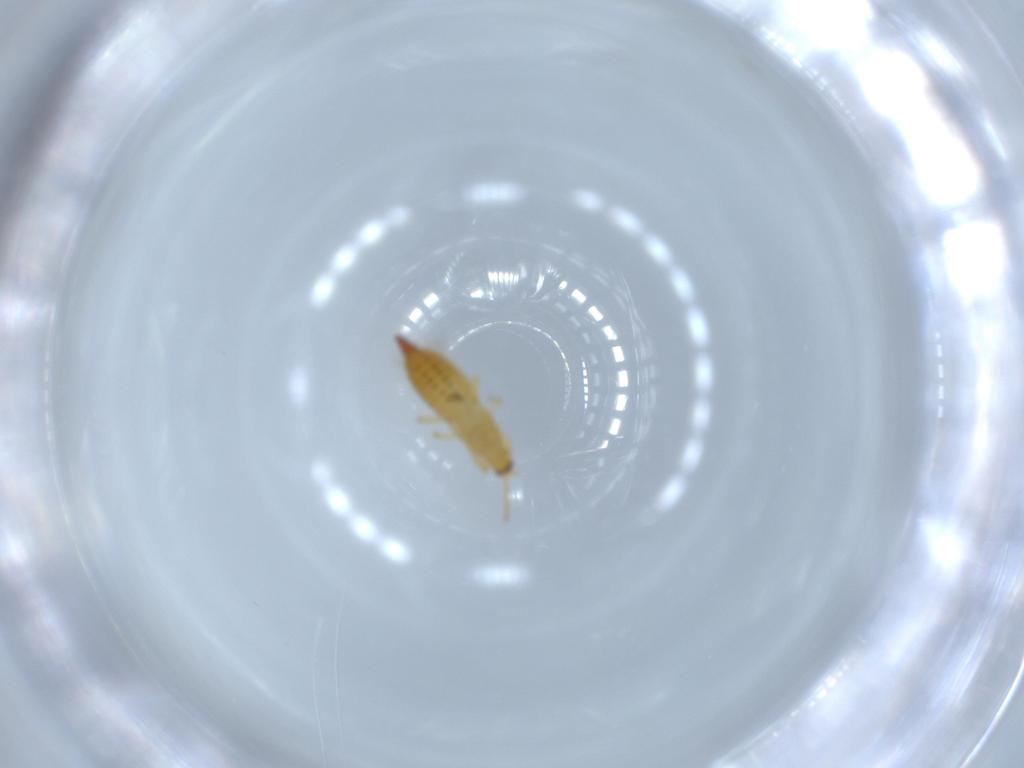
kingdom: Animalia
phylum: Arthropoda
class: Insecta
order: Thysanoptera
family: Phlaeothripidae
